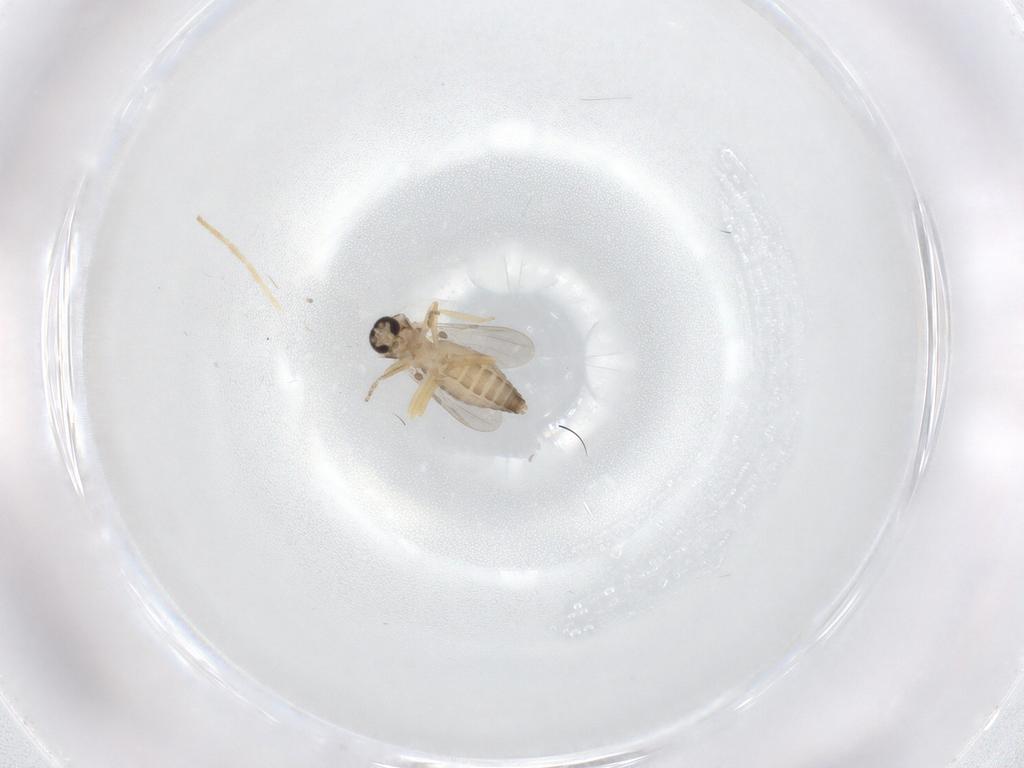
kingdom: Animalia
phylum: Arthropoda
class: Insecta
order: Diptera
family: Ceratopogonidae
